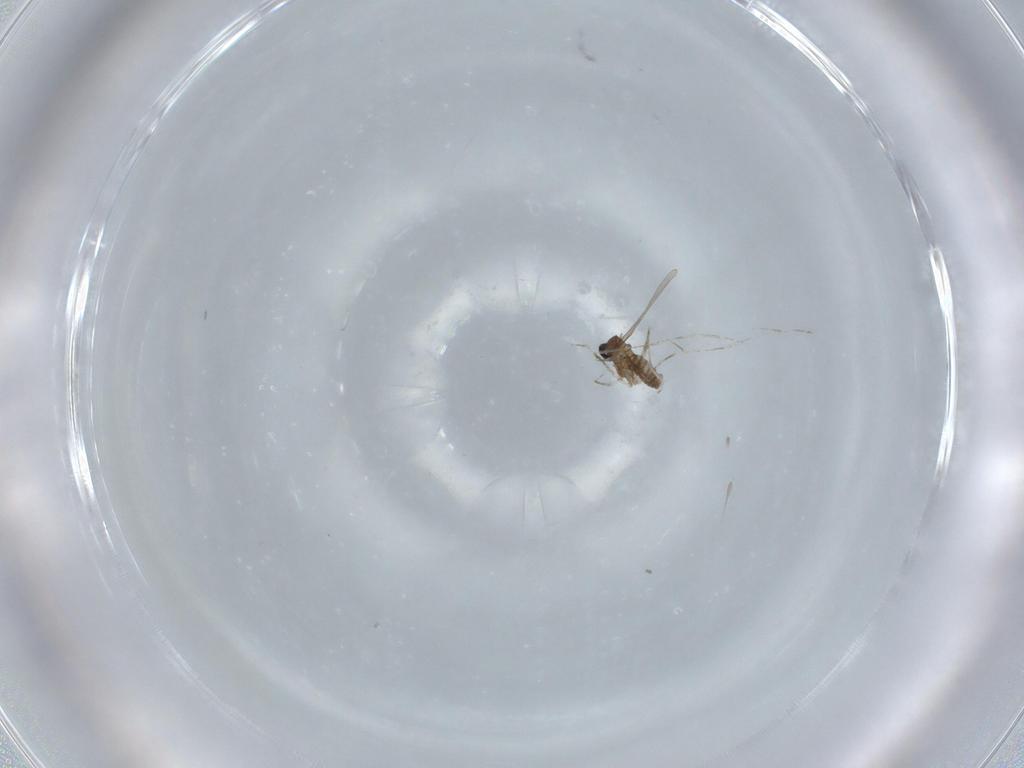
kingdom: Animalia
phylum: Arthropoda
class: Insecta
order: Diptera
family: Cecidomyiidae
